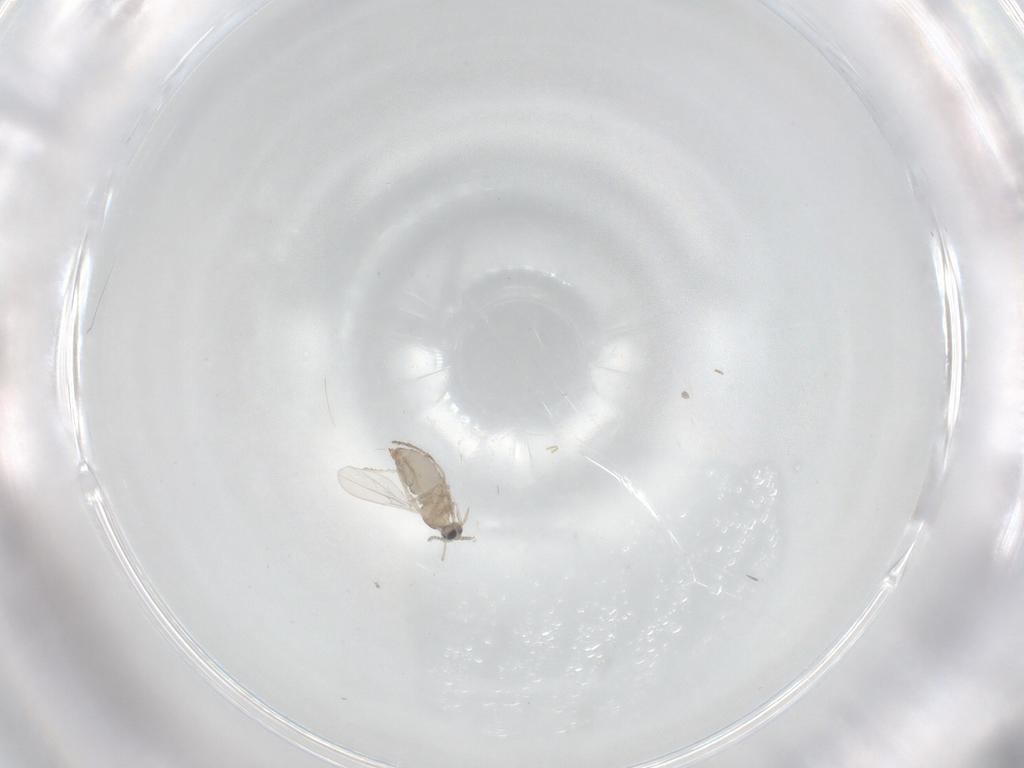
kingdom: Animalia
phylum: Arthropoda
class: Insecta
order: Diptera
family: Cecidomyiidae
